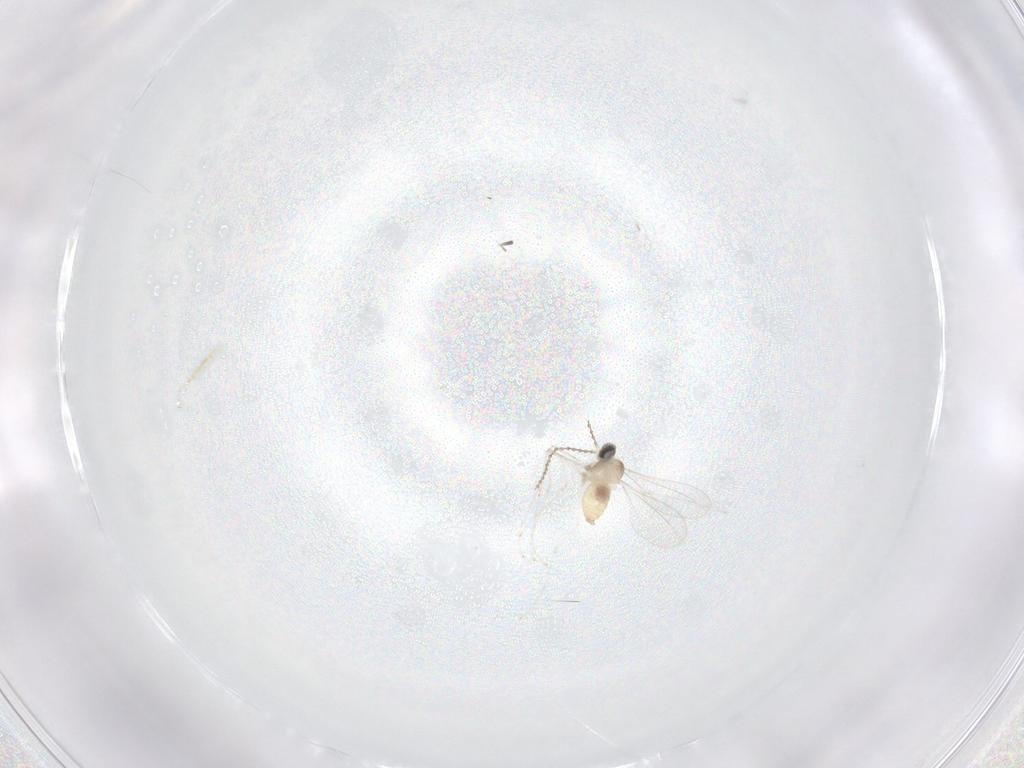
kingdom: Animalia
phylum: Arthropoda
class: Insecta
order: Diptera
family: Cecidomyiidae
